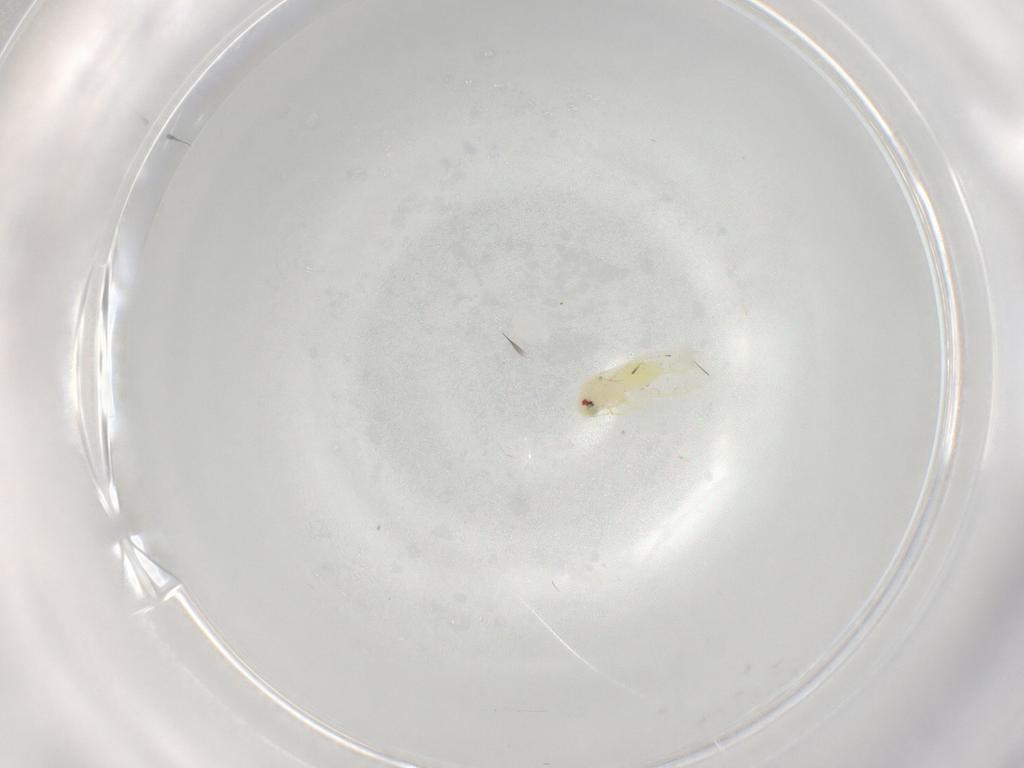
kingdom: Animalia
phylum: Arthropoda
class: Insecta
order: Hemiptera
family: Aleyrodidae
